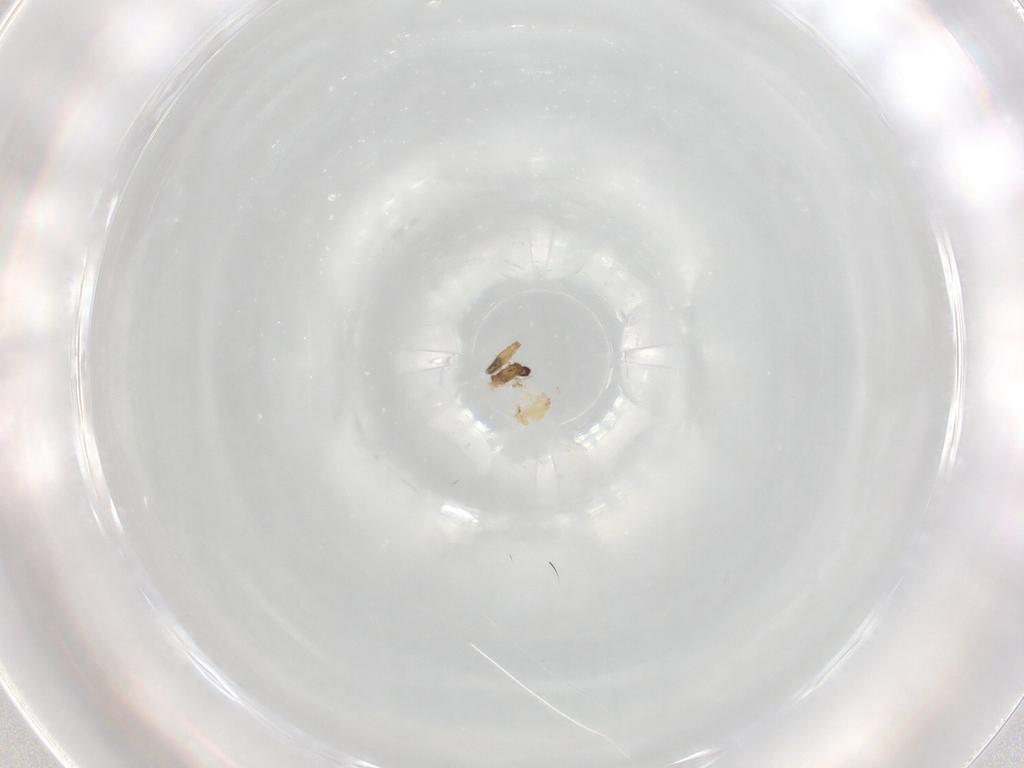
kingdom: Animalia
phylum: Arthropoda
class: Insecta
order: Diptera
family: Glossinidae
